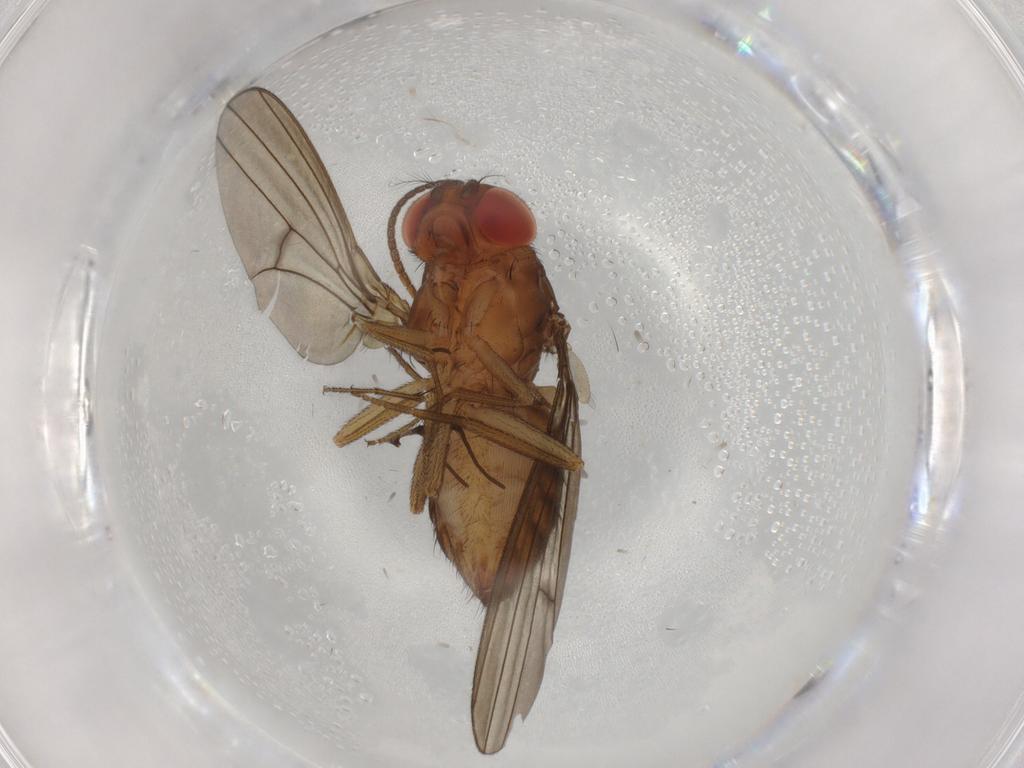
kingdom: Animalia
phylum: Arthropoda
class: Insecta
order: Diptera
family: Drosophilidae
